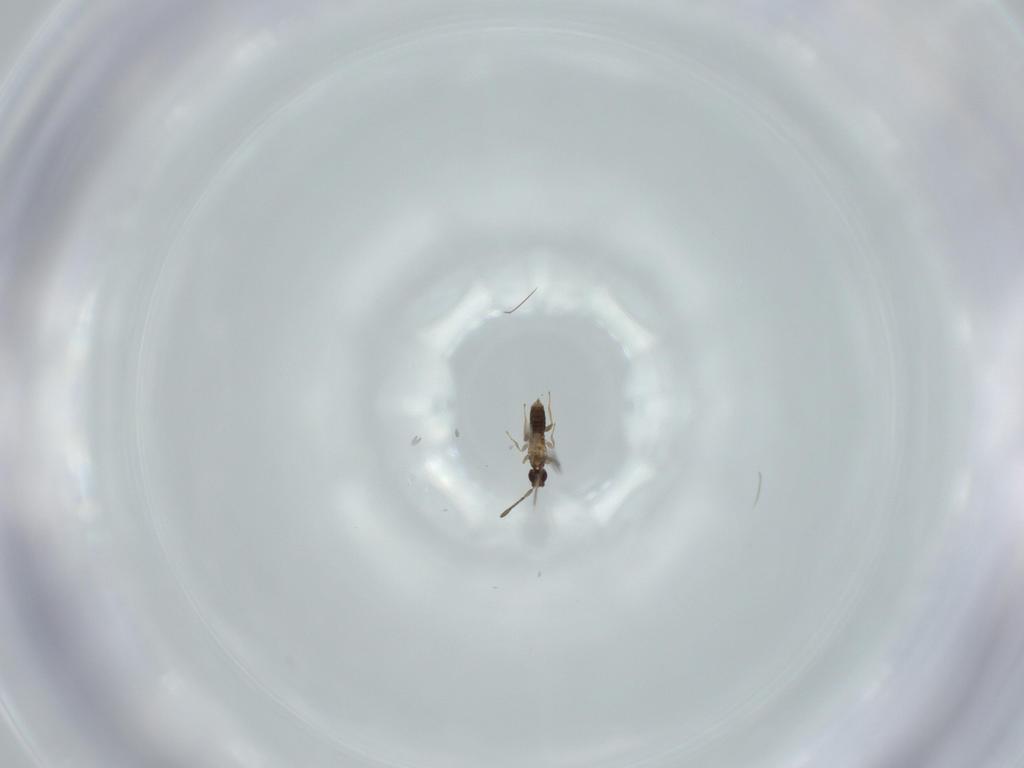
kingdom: Animalia
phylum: Arthropoda
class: Insecta
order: Hymenoptera
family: Mymaridae
